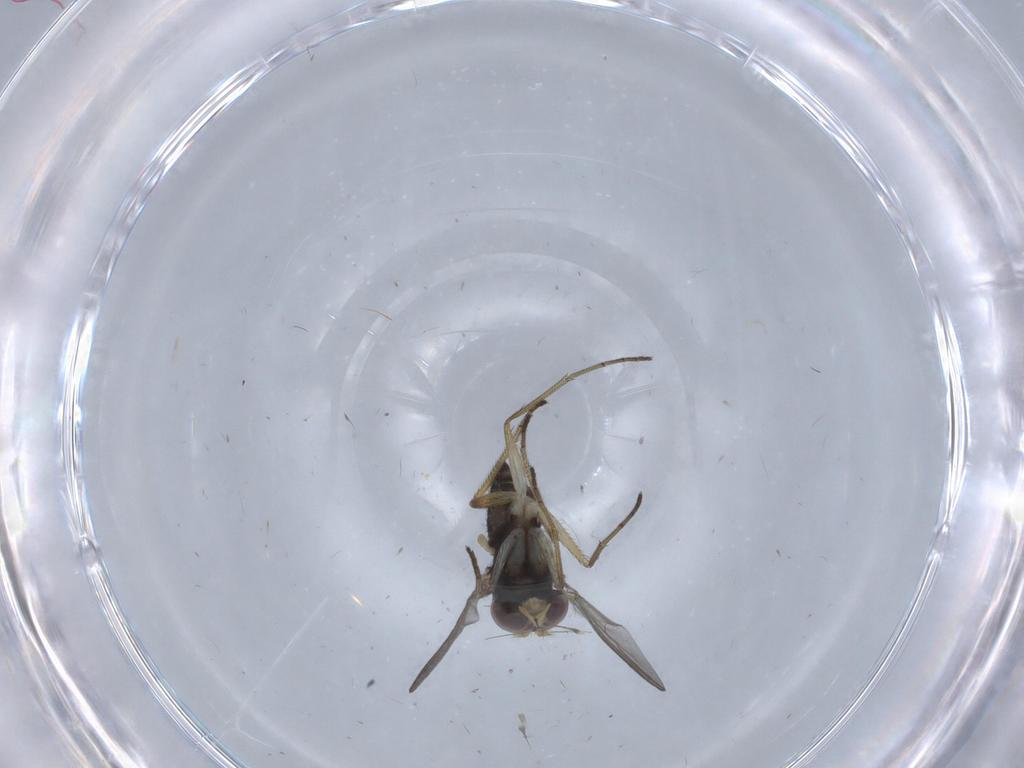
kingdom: Animalia
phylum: Arthropoda
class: Insecta
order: Diptera
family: Dolichopodidae
